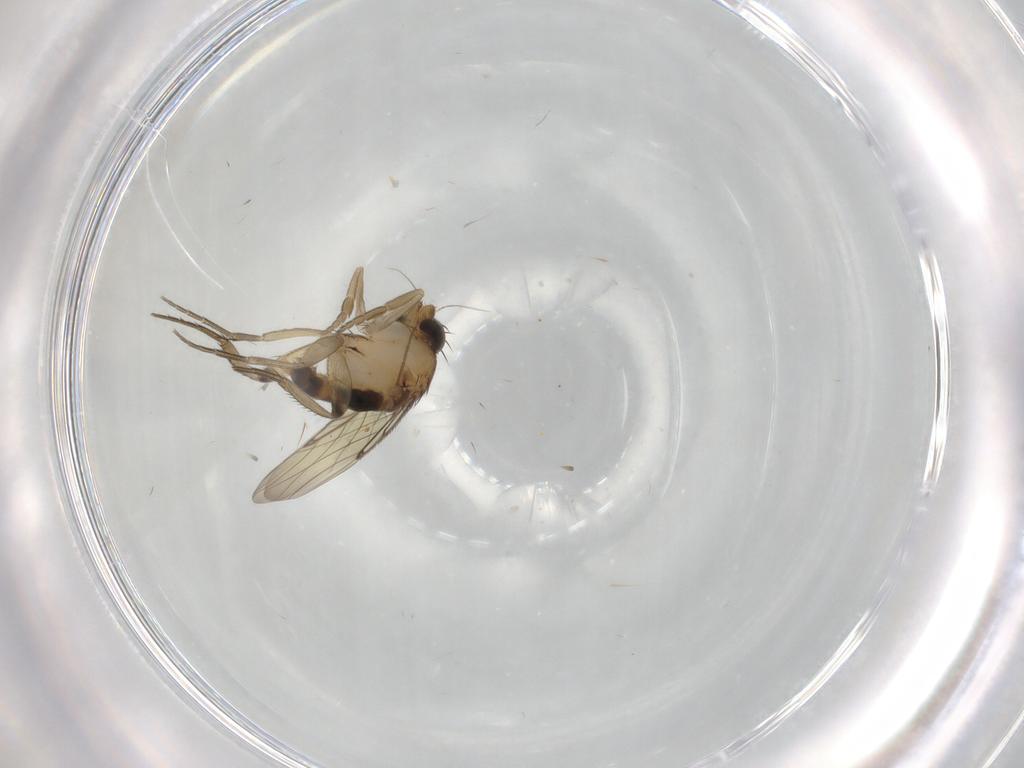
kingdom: Animalia
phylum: Arthropoda
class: Insecta
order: Diptera
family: Phoridae
